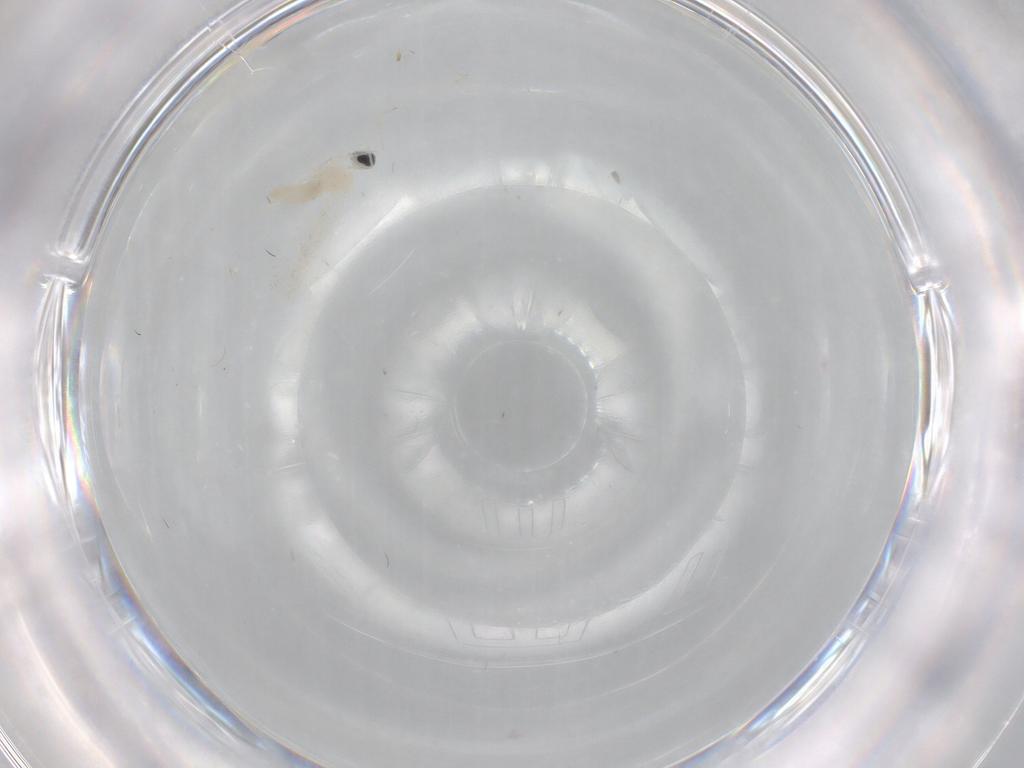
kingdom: Animalia
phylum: Arthropoda
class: Insecta
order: Diptera
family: Cecidomyiidae
